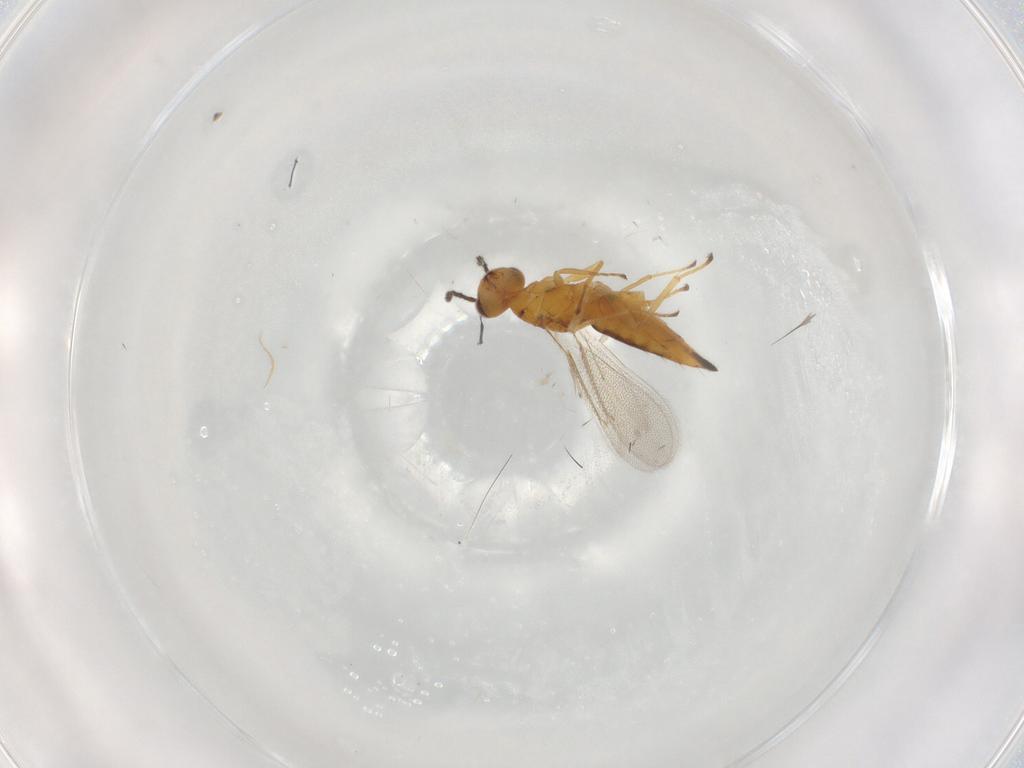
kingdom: Animalia
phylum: Arthropoda
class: Insecta
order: Hymenoptera
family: Eulophidae
